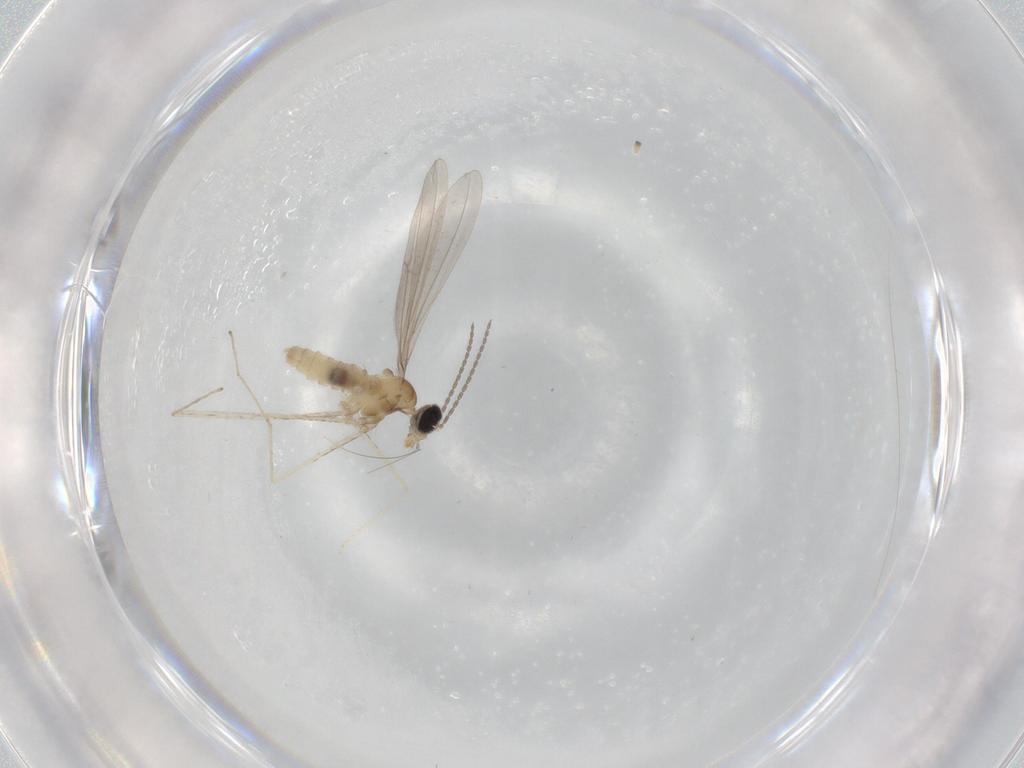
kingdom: Animalia
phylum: Arthropoda
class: Insecta
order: Diptera
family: Cecidomyiidae
